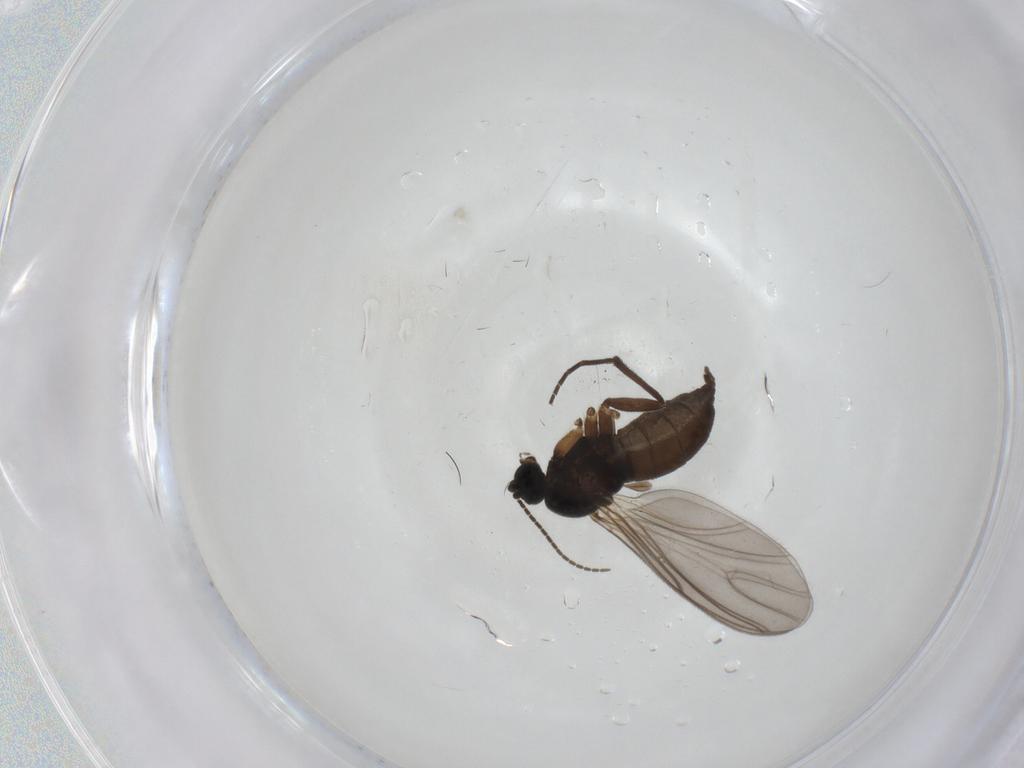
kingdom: Animalia
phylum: Arthropoda
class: Insecta
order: Diptera
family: Sciaridae
